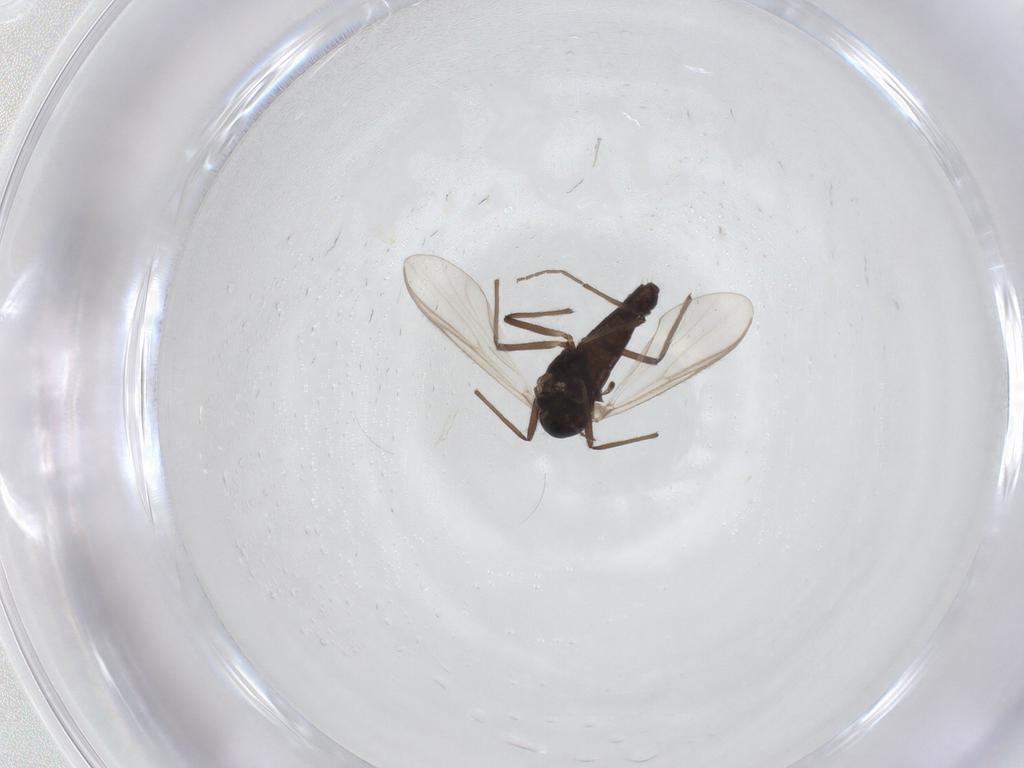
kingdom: Animalia
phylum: Arthropoda
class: Insecta
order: Diptera
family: Chironomidae
